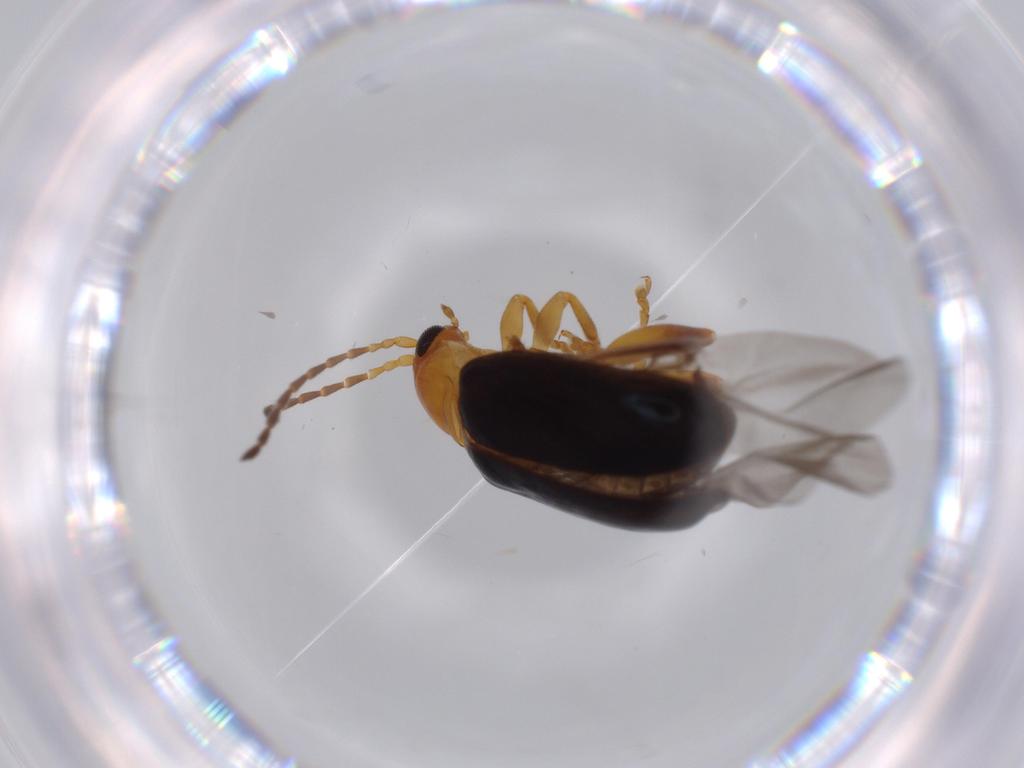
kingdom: Animalia
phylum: Arthropoda
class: Insecta
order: Coleoptera
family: Chrysomelidae
